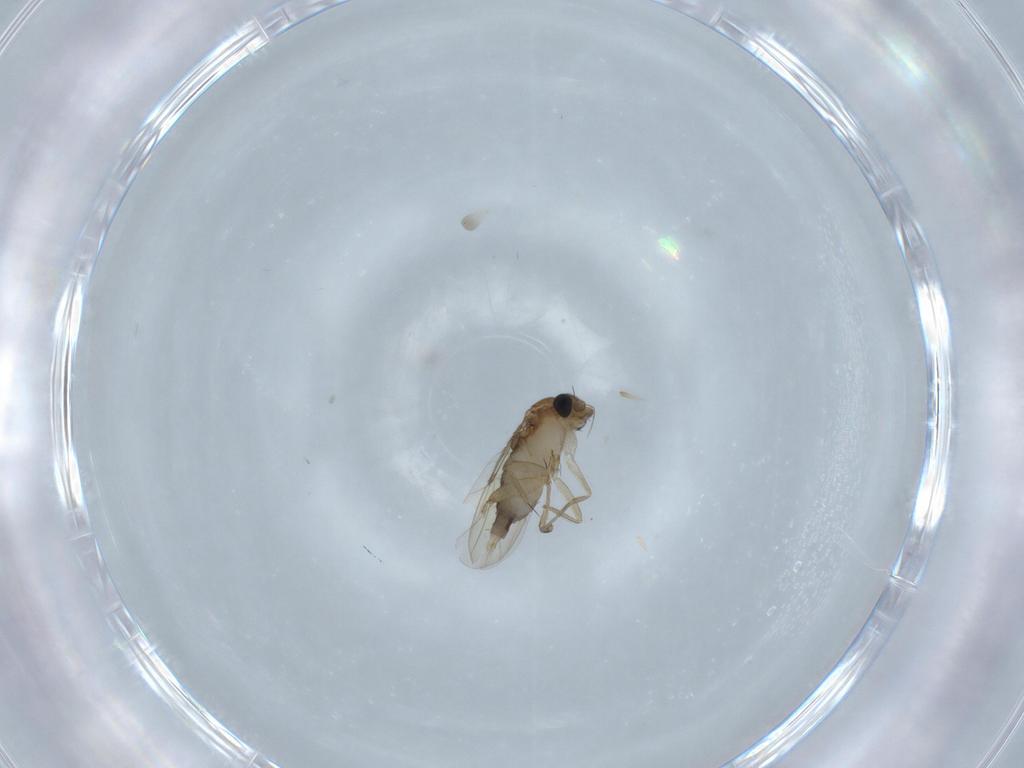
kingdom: Animalia
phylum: Arthropoda
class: Insecta
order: Diptera
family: Phoridae
